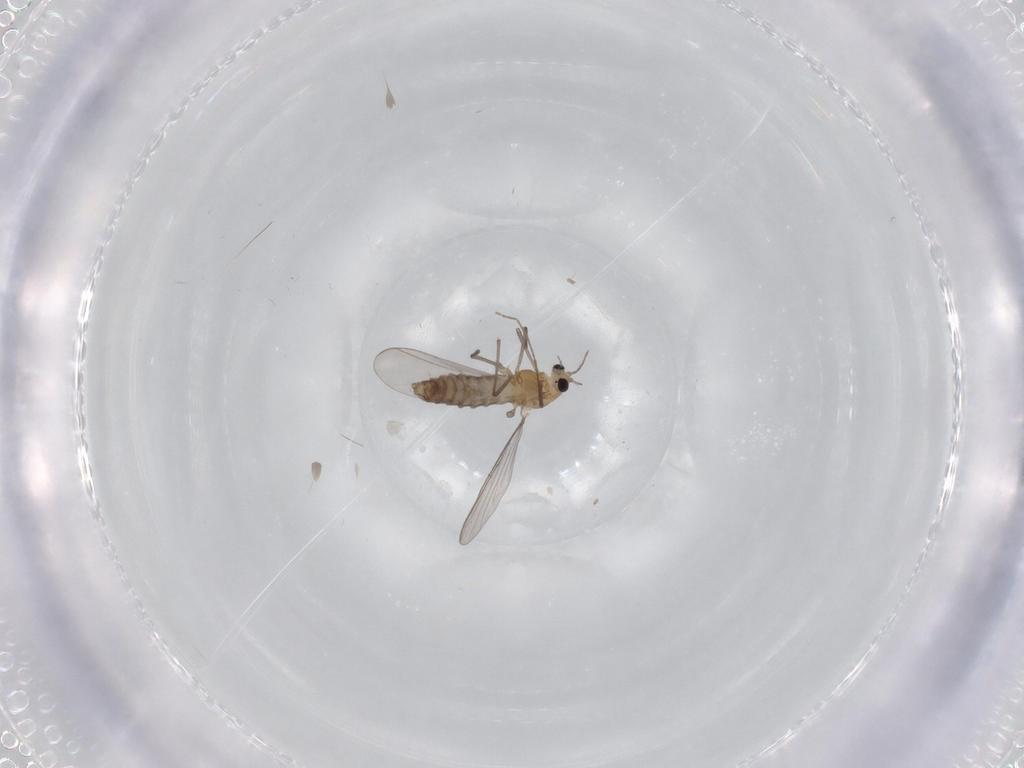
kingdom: Animalia
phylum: Arthropoda
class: Insecta
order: Diptera
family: Chironomidae
